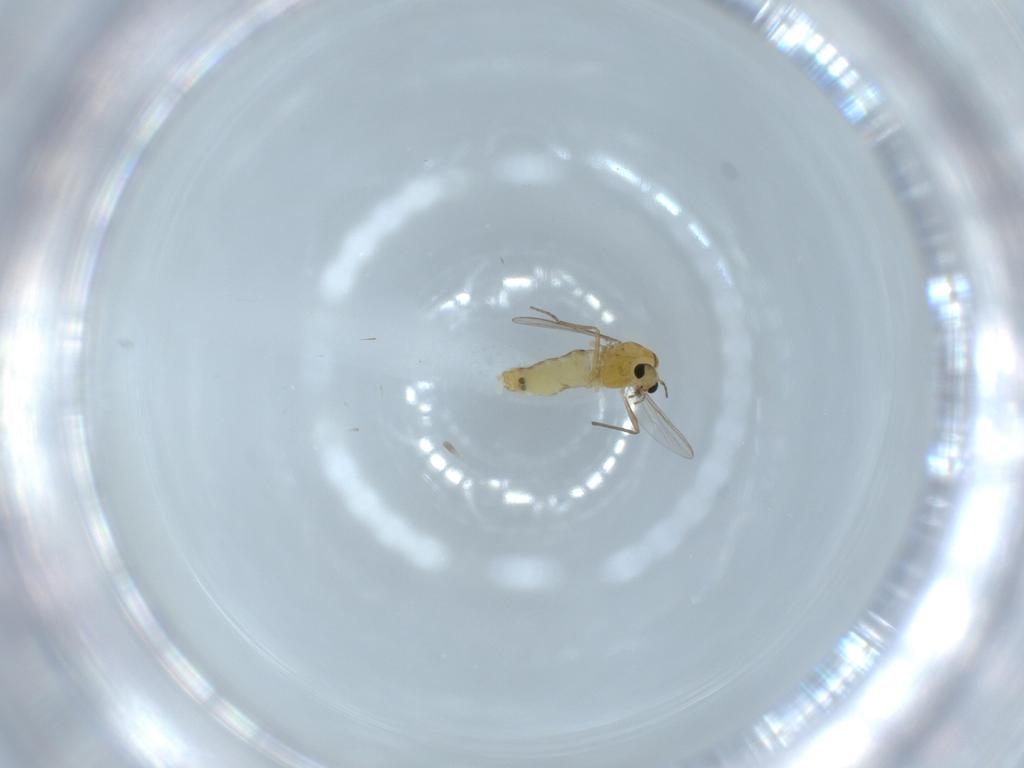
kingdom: Animalia
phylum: Arthropoda
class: Insecta
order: Diptera
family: Chironomidae
